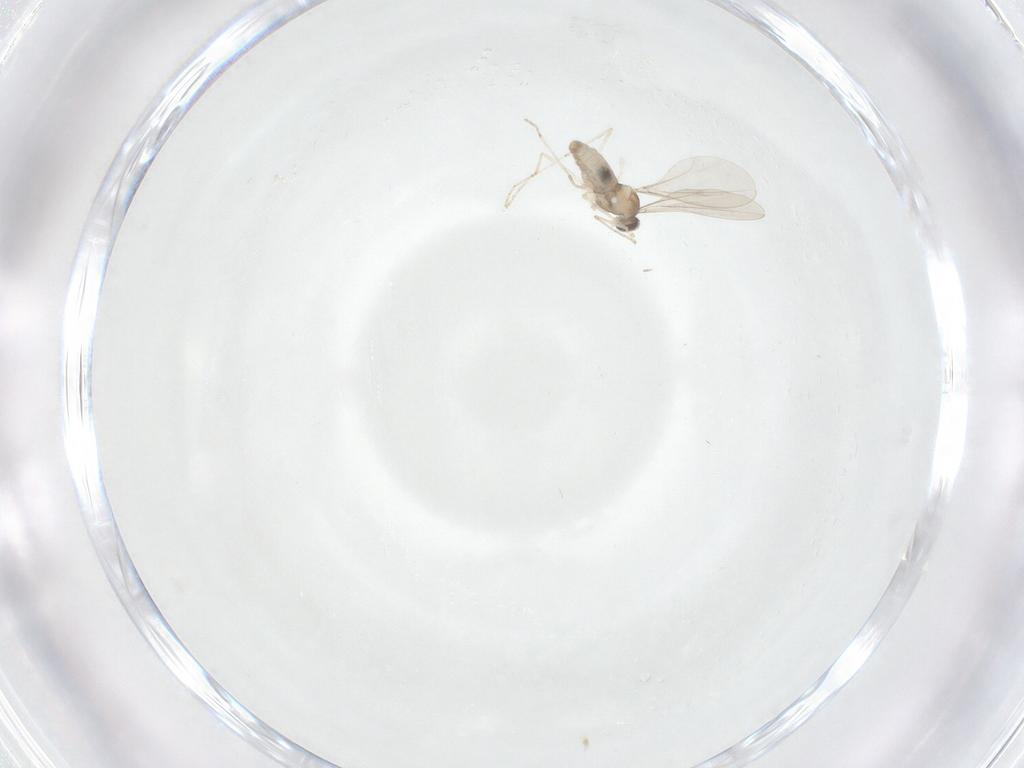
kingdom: Animalia
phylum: Arthropoda
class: Insecta
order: Diptera
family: Cecidomyiidae
